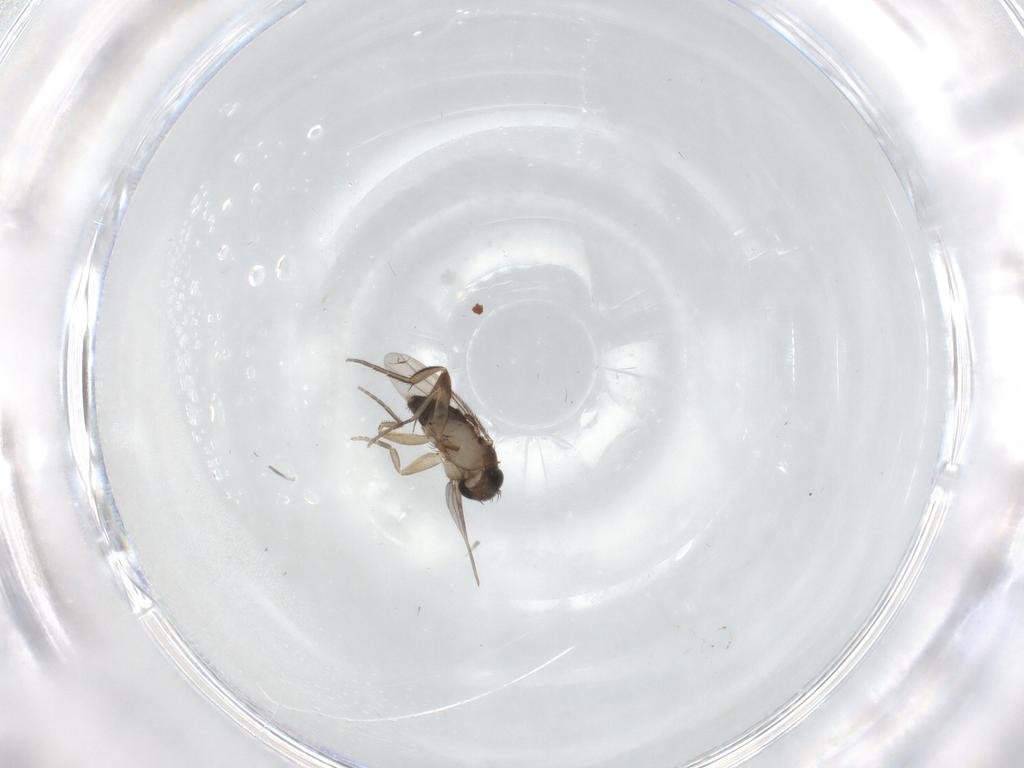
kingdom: Animalia
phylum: Arthropoda
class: Insecta
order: Diptera
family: Phoridae
